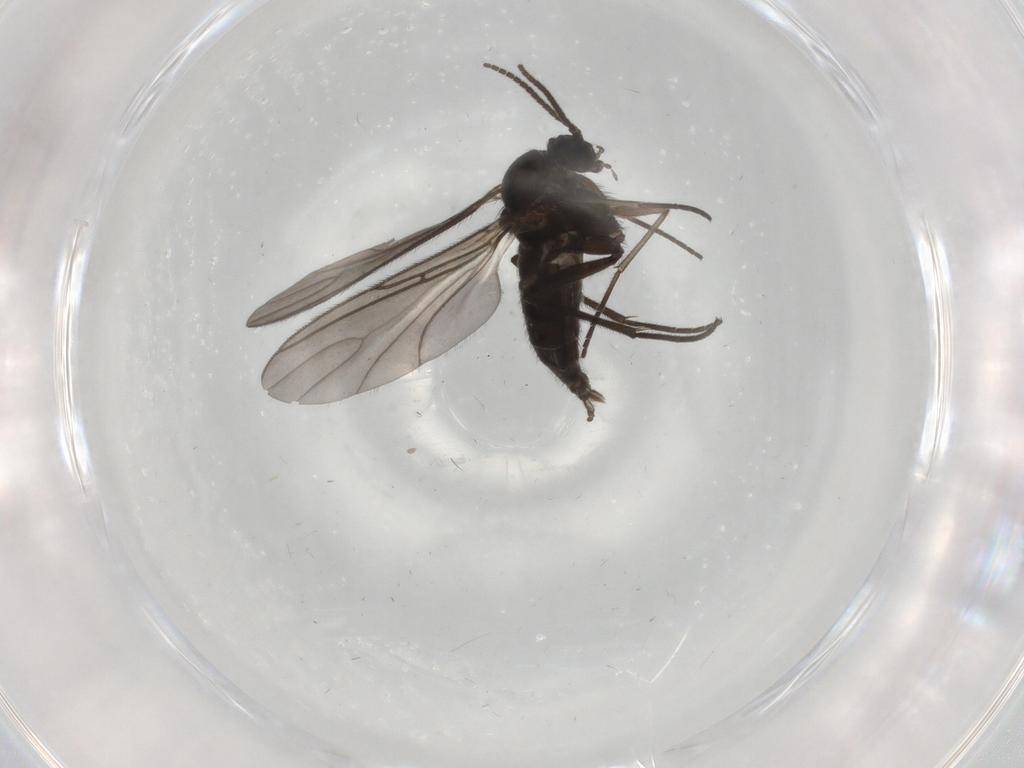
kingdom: Animalia
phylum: Arthropoda
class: Insecta
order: Diptera
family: Sciaridae
